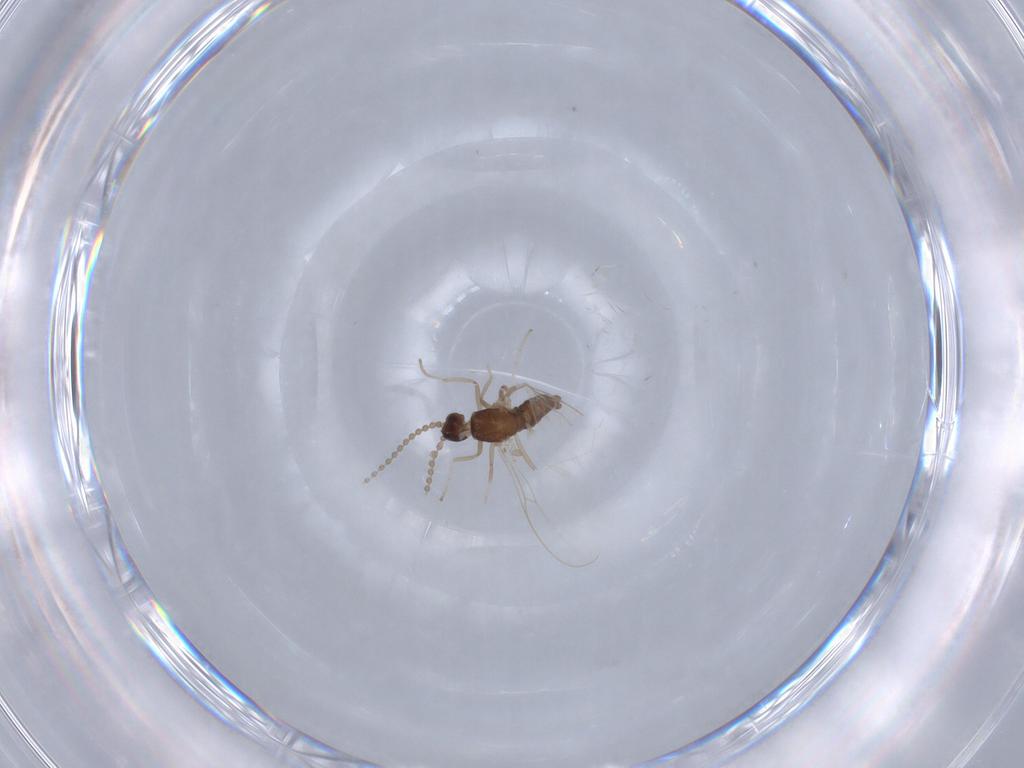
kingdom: Animalia
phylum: Arthropoda
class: Insecta
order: Diptera
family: Cecidomyiidae
